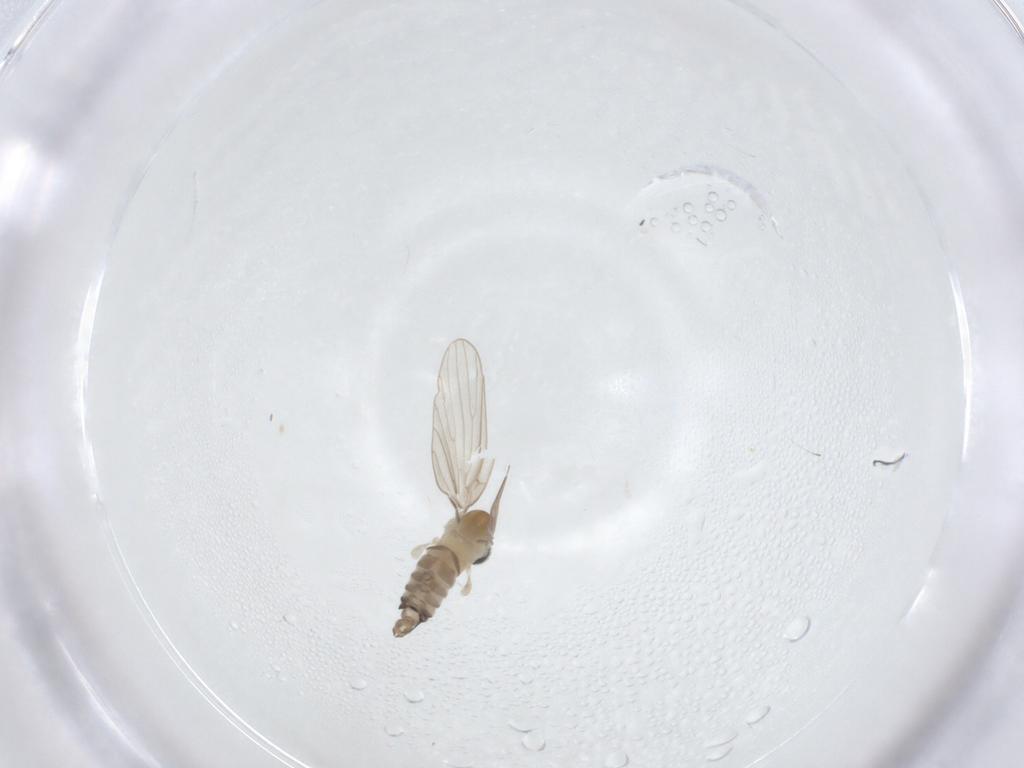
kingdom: Animalia
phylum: Arthropoda
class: Insecta
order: Diptera
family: Psychodidae
